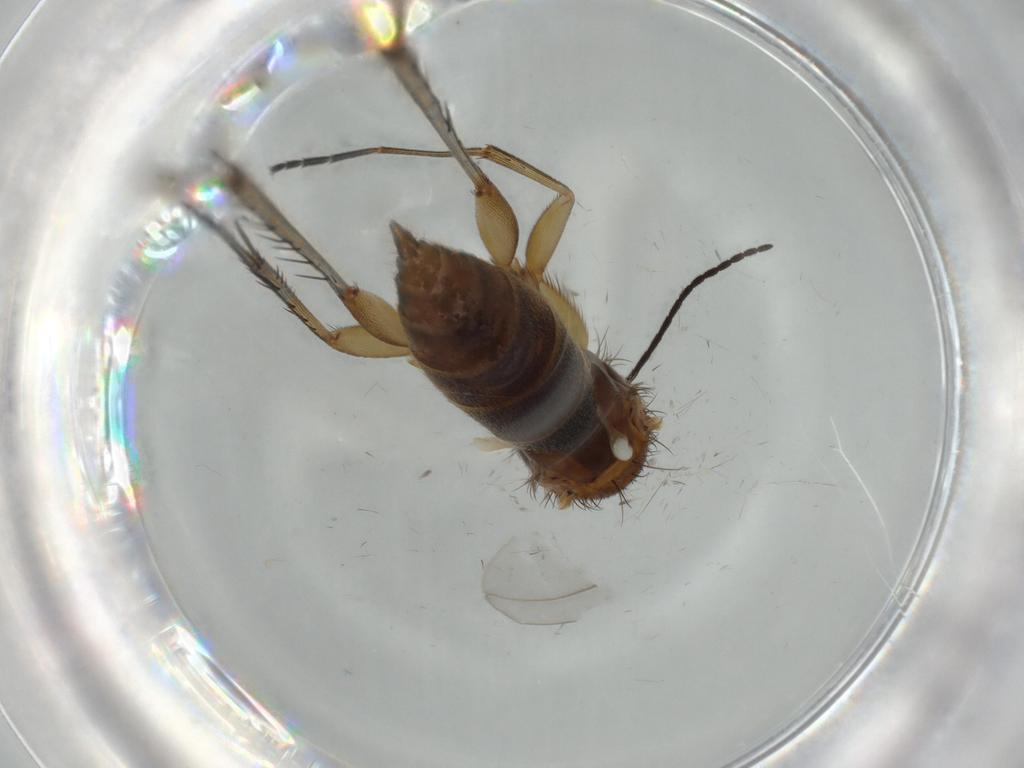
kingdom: Animalia
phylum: Arthropoda
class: Insecta
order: Diptera
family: Chironomidae
